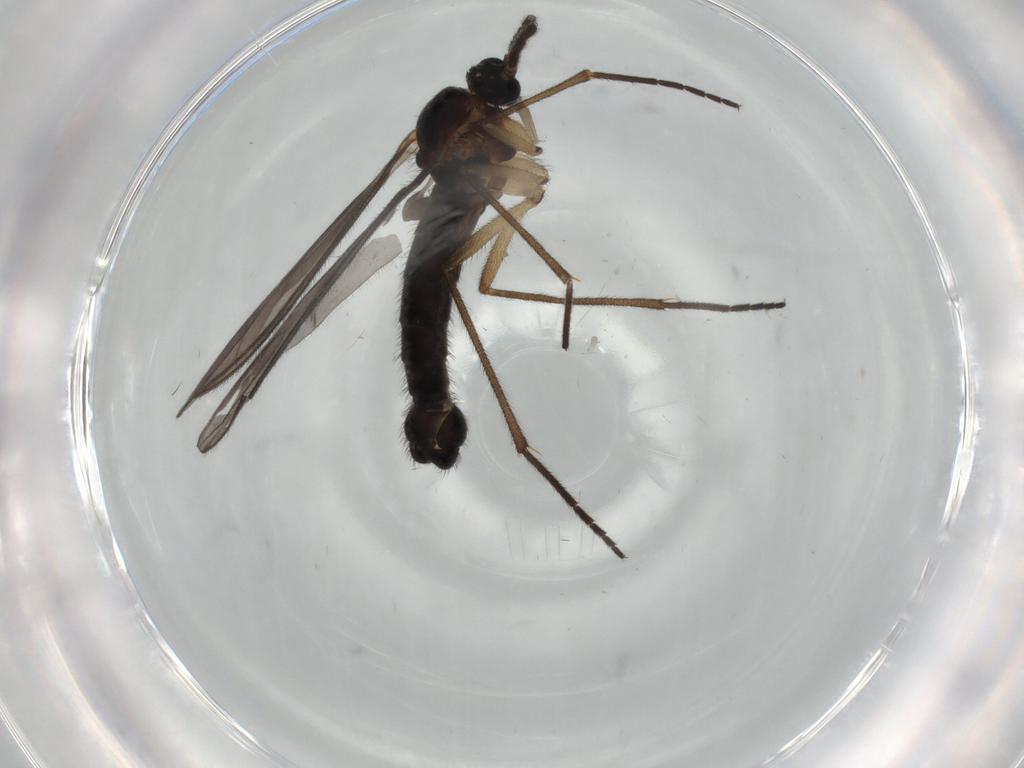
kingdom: Animalia
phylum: Arthropoda
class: Insecta
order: Diptera
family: Sciaridae
